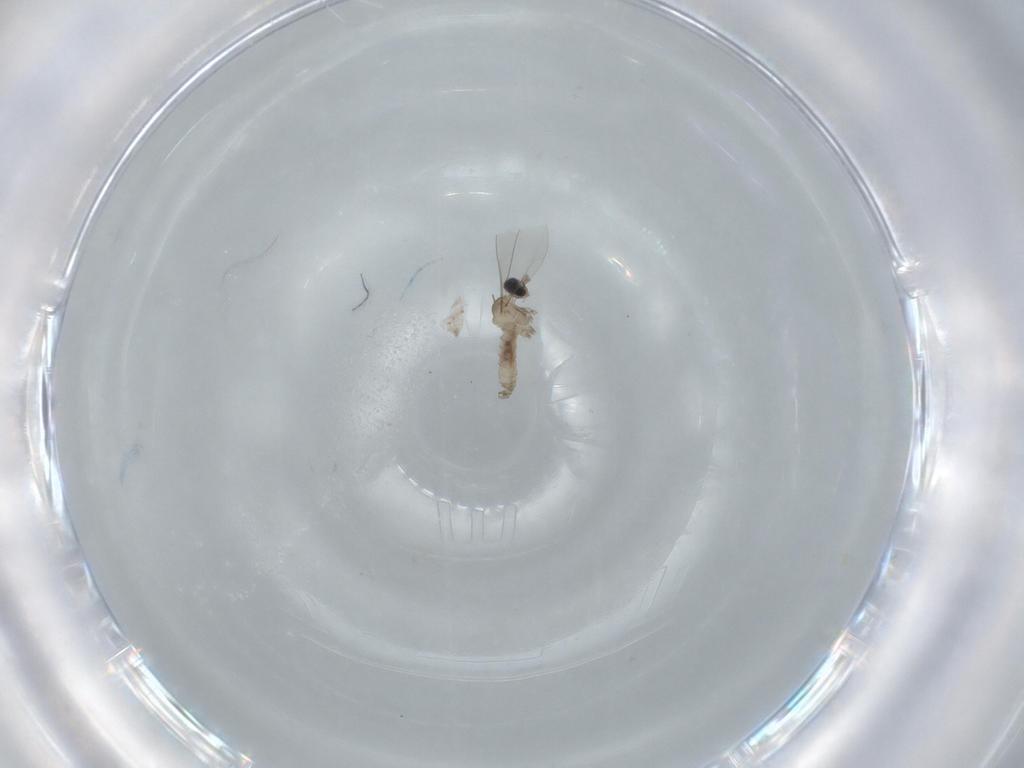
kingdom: Animalia
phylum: Arthropoda
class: Insecta
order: Diptera
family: Cecidomyiidae
